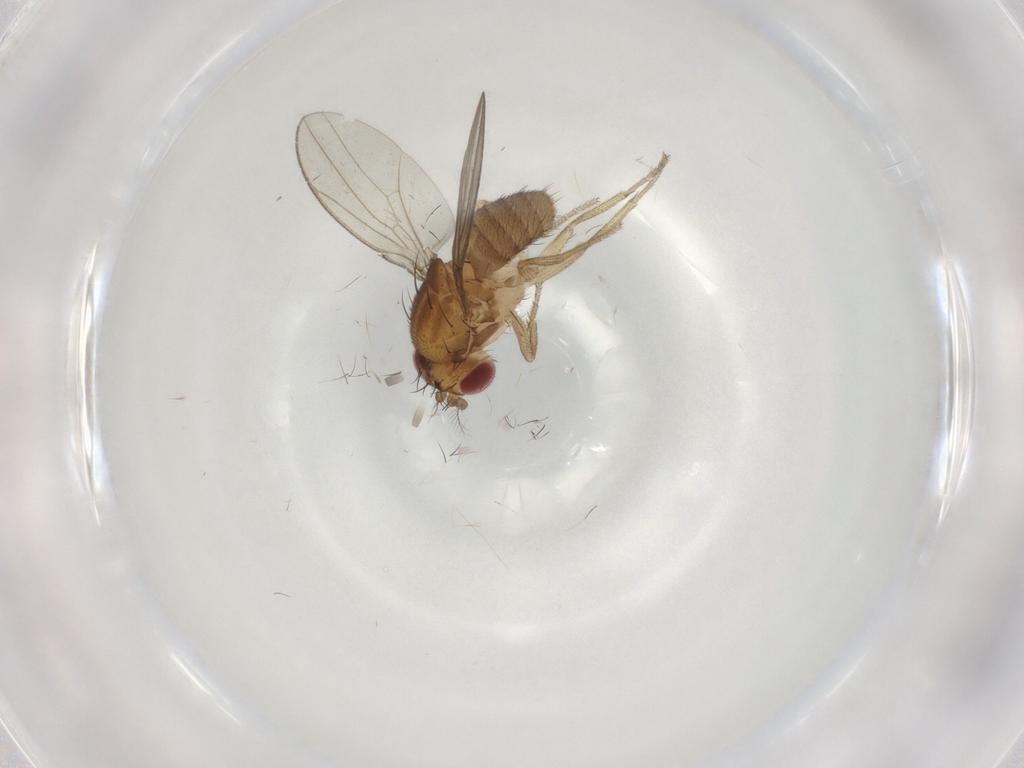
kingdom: Animalia
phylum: Arthropoda
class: Insecta
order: Diptera
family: Drosophilidae
